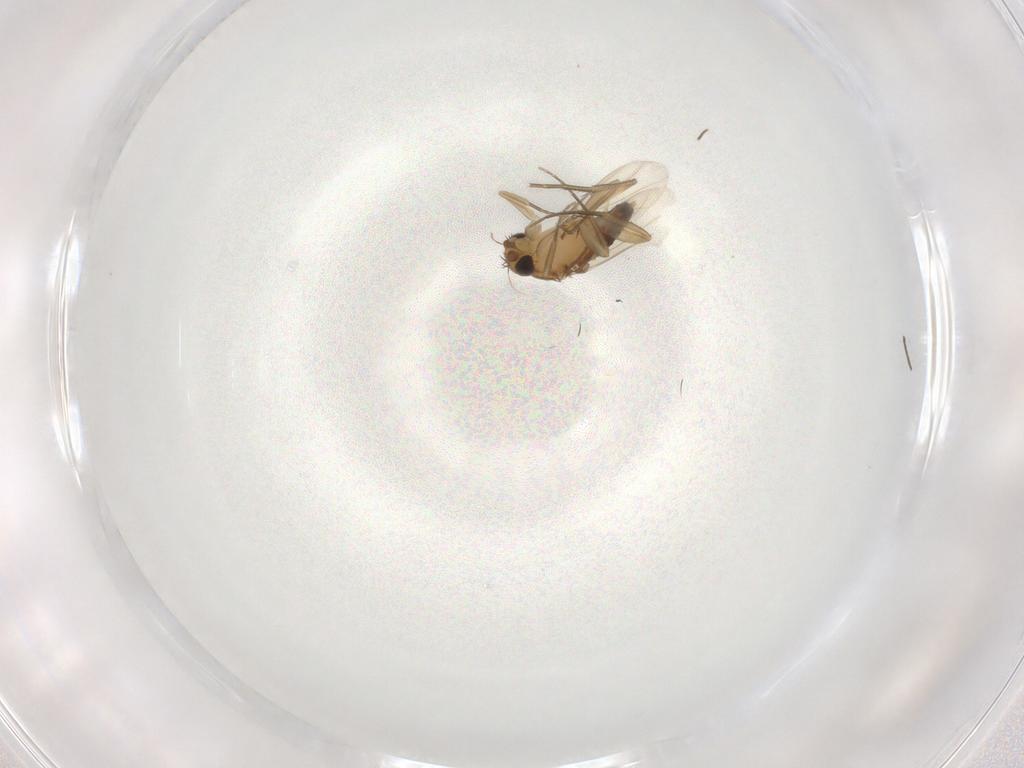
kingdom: Animalia
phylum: Arthropoda
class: Insecta
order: Diptera
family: Phoridae
